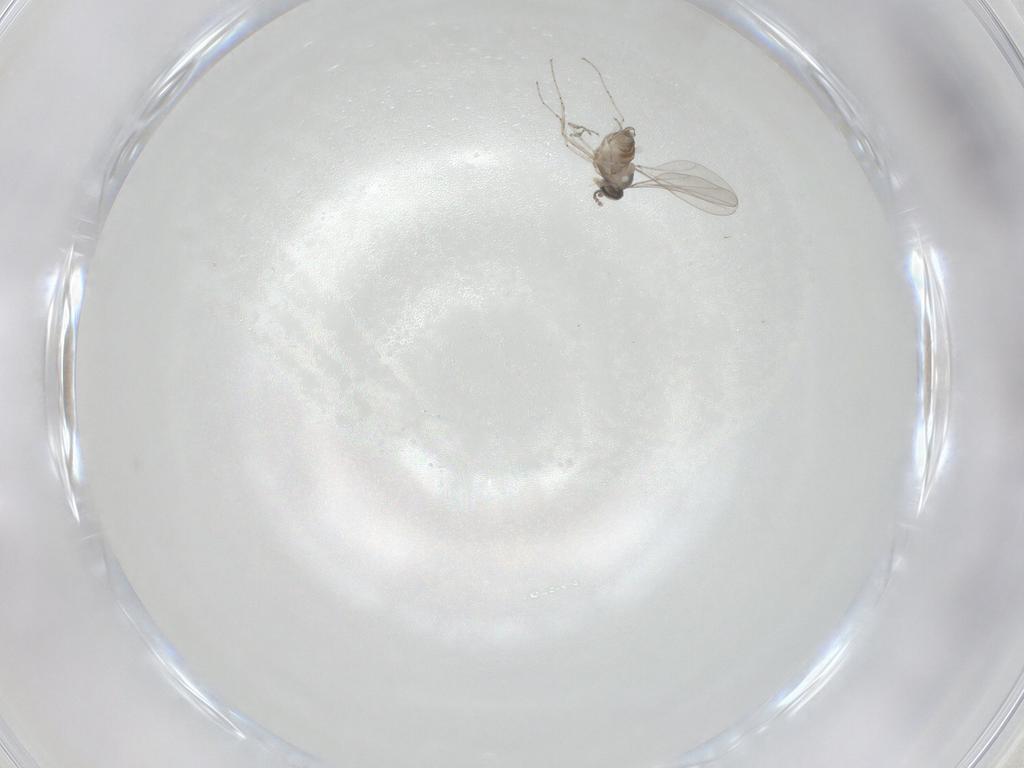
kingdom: Animalia
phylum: Arthropoda
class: Insecta
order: Diptera
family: Cecidomyiidae
